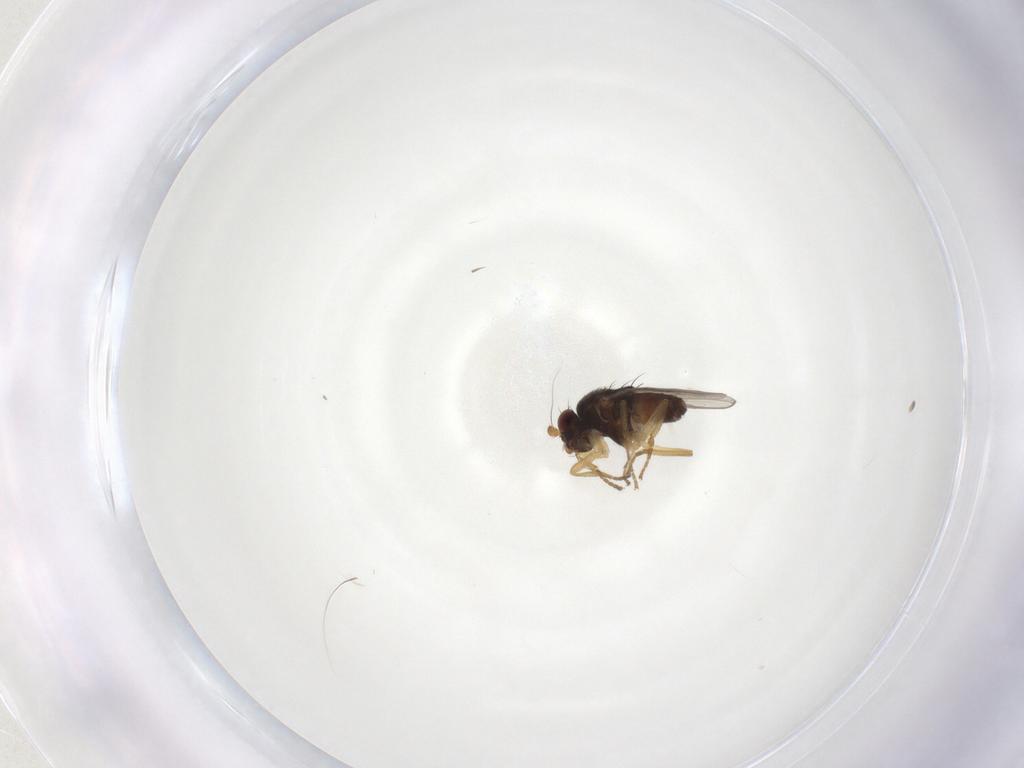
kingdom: Animalia
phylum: Arthropoda
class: Insecta
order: Diptera
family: Sphaeroceridae
